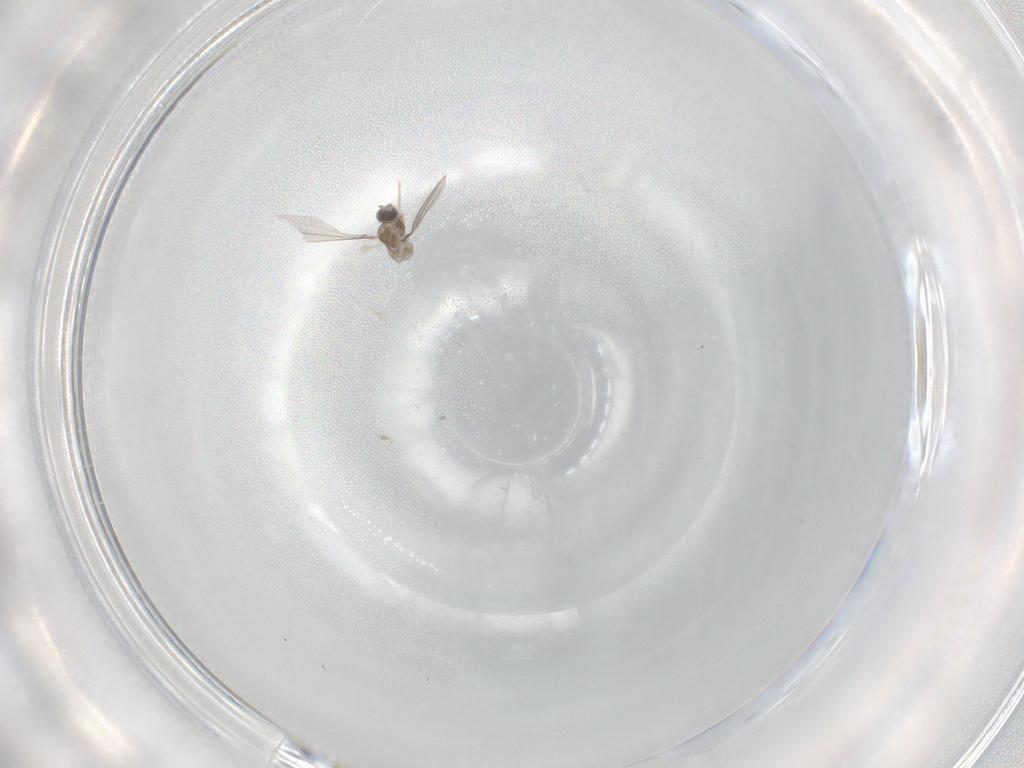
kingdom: Animalia
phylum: Arthropoda
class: Insecta
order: Diptera
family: Cecidomyiidae
